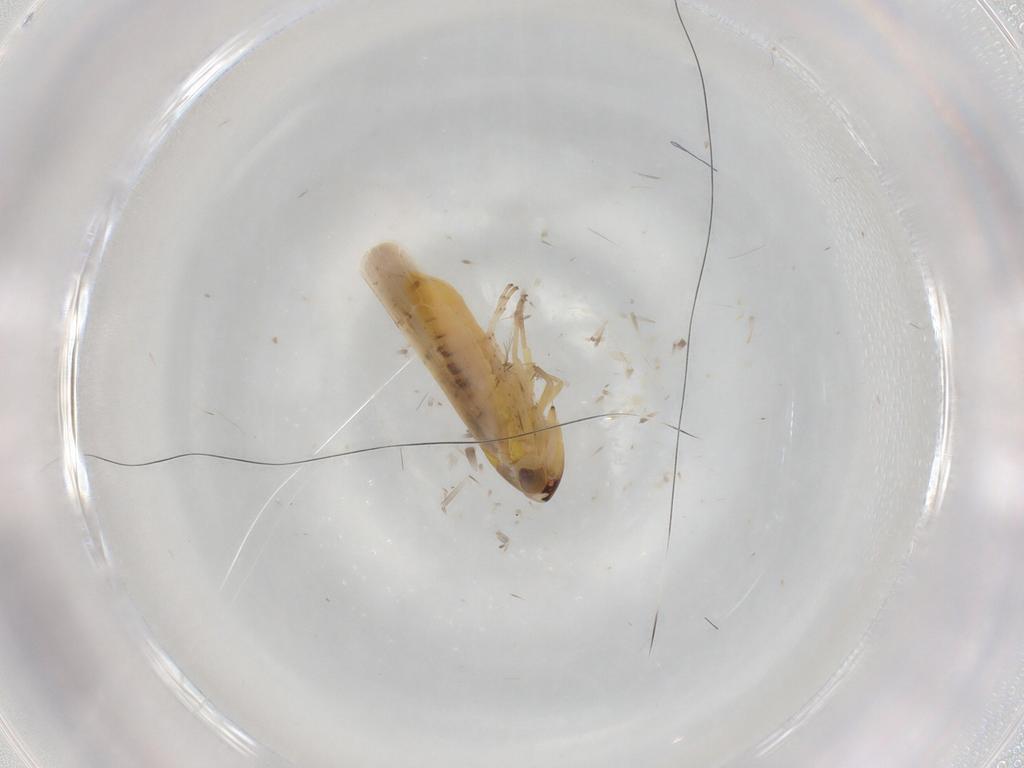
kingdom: Animalia
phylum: Arthropoda
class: Insecta
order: Hemiptera
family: Cicadellidae
